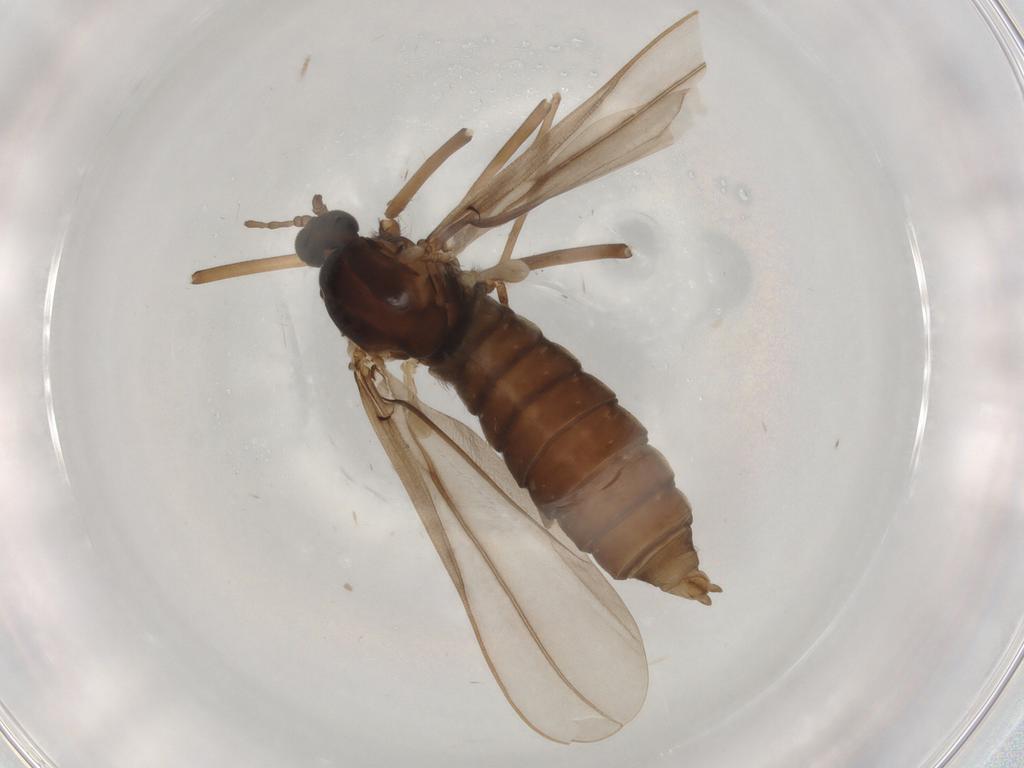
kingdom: Animalia
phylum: Arthropoda
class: Insecta
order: Diptera
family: Cecidomyiidae
